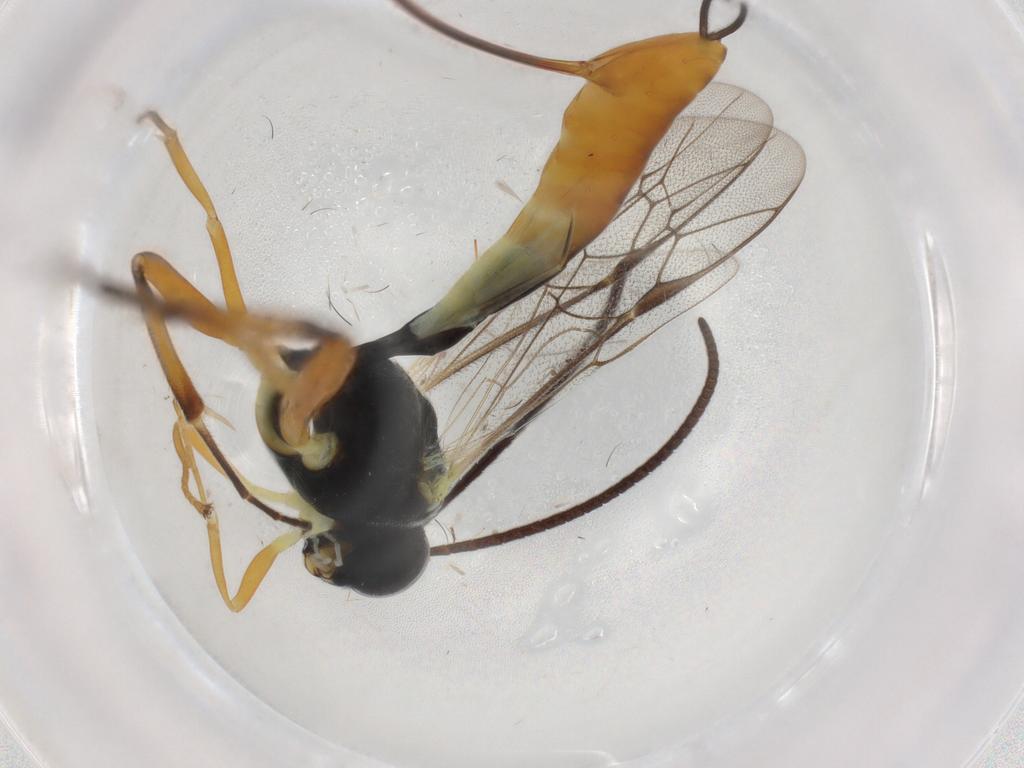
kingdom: Animalia
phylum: Arthropoda
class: Insecta
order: Hymenoptera
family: Ichneumonidae
